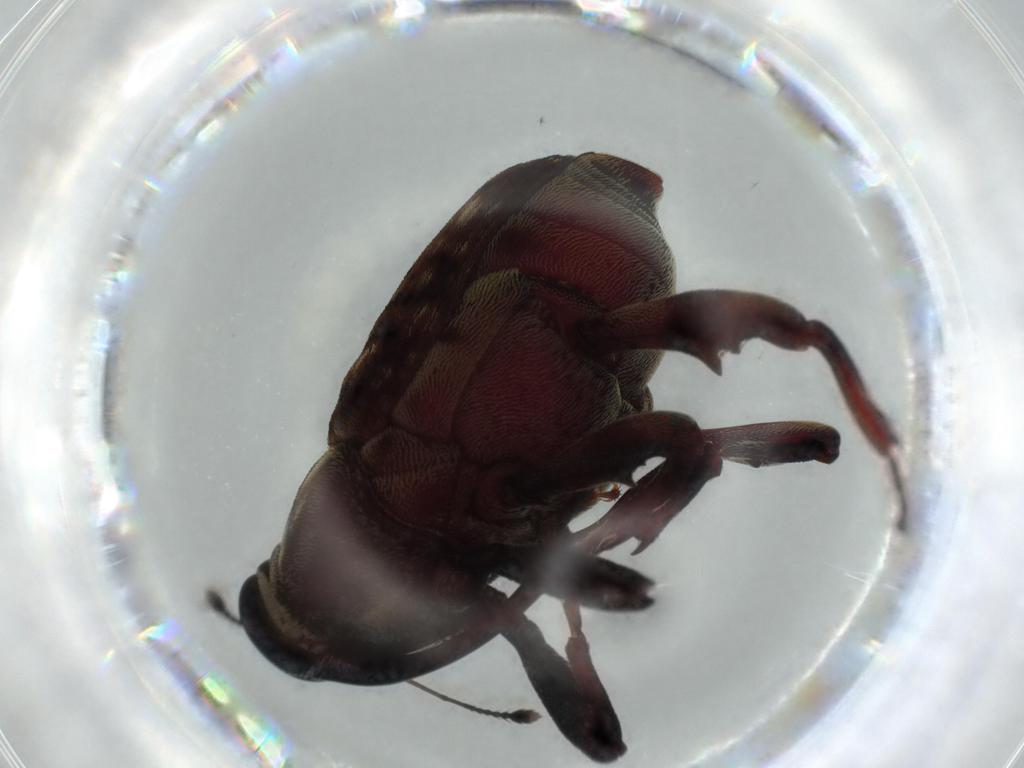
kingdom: Animalia
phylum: Arthropoda
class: Insecta
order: Coleoptera
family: Curculionidae
